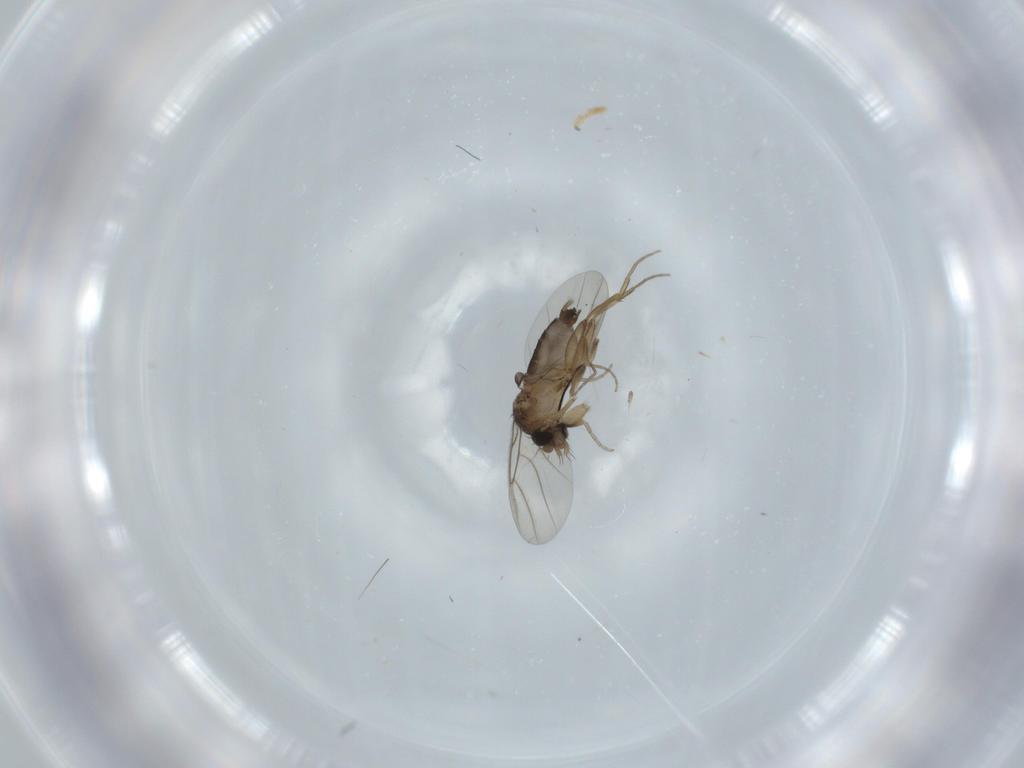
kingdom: Animalia
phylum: Arthropoda
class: Insecta
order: Diptera
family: Phoridae
